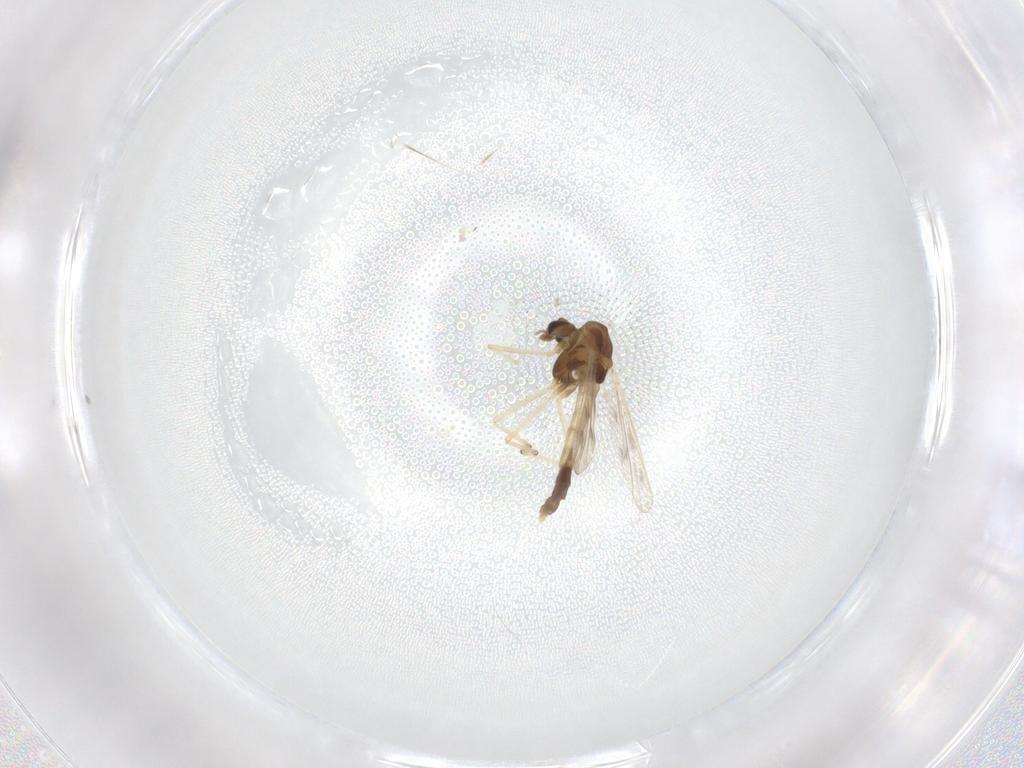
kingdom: Animalia
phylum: Arthropoda
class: Insecta
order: Diptera
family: Chironomidae
